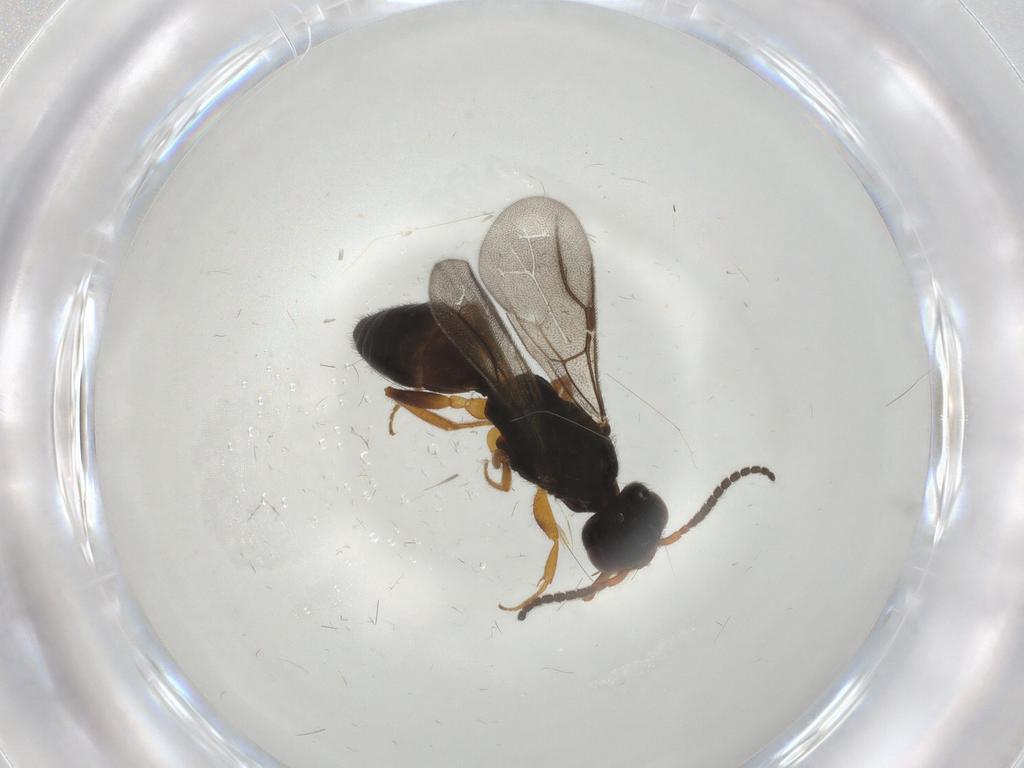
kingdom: Animalia
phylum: Arthropoda
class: Insecta
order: Hymenoptera
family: Bethylidae
